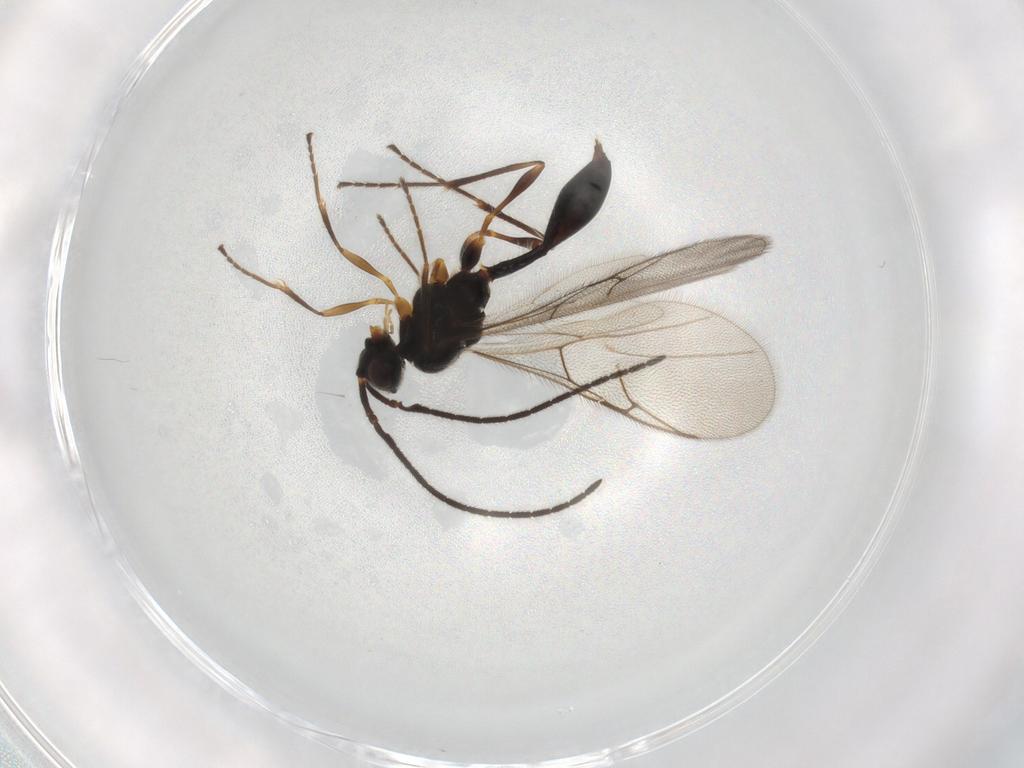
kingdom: Animalia
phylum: Arthropoda
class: Insecta
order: Hymenoptera
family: Diapriidae
